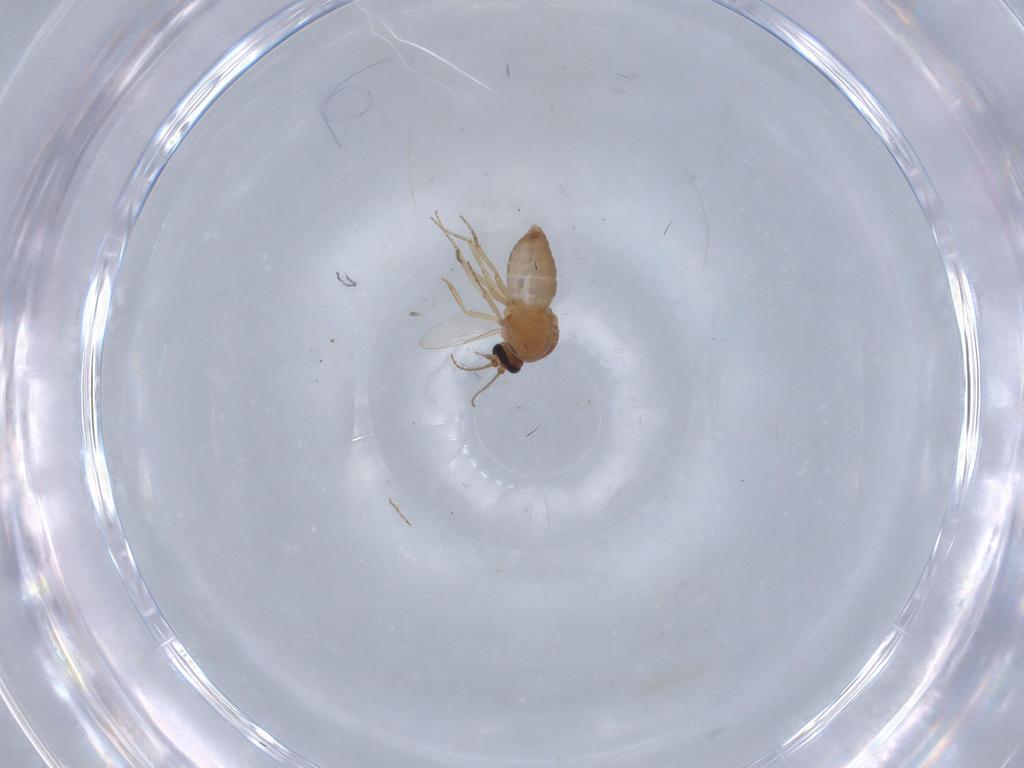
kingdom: Animalia
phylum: Arthropoda
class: Insecta
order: Diptera
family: Ceratopogonidae
